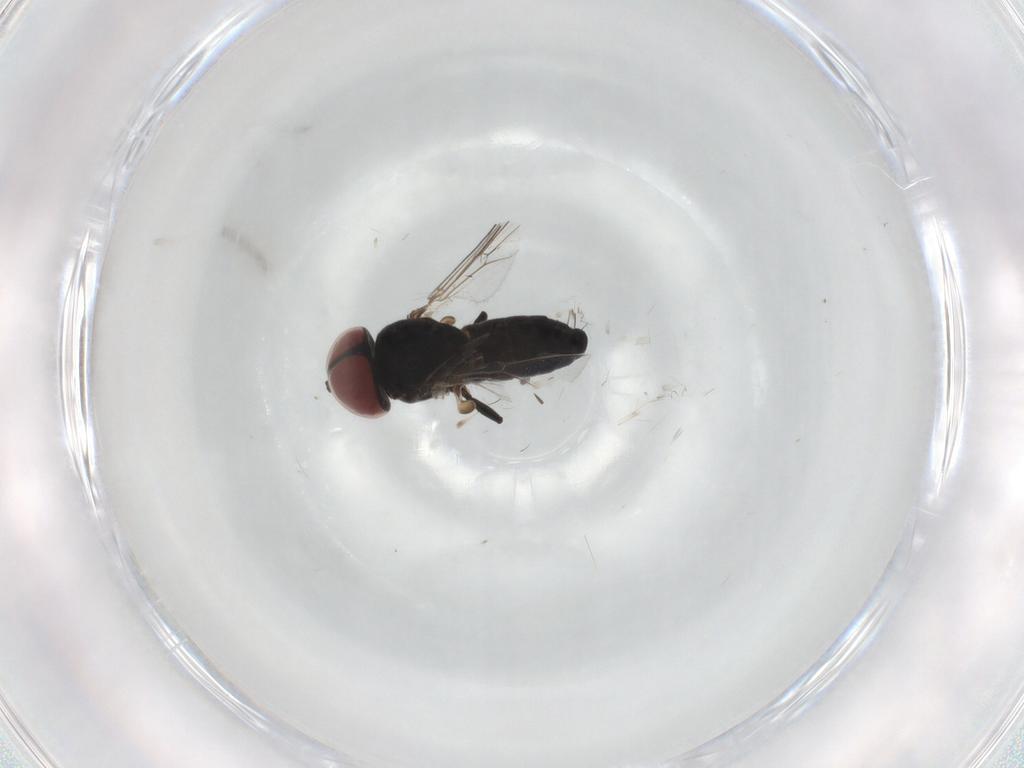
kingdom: Animalia
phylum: Arthropoda
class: Insecta
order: Diptera
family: Pipunculidae
